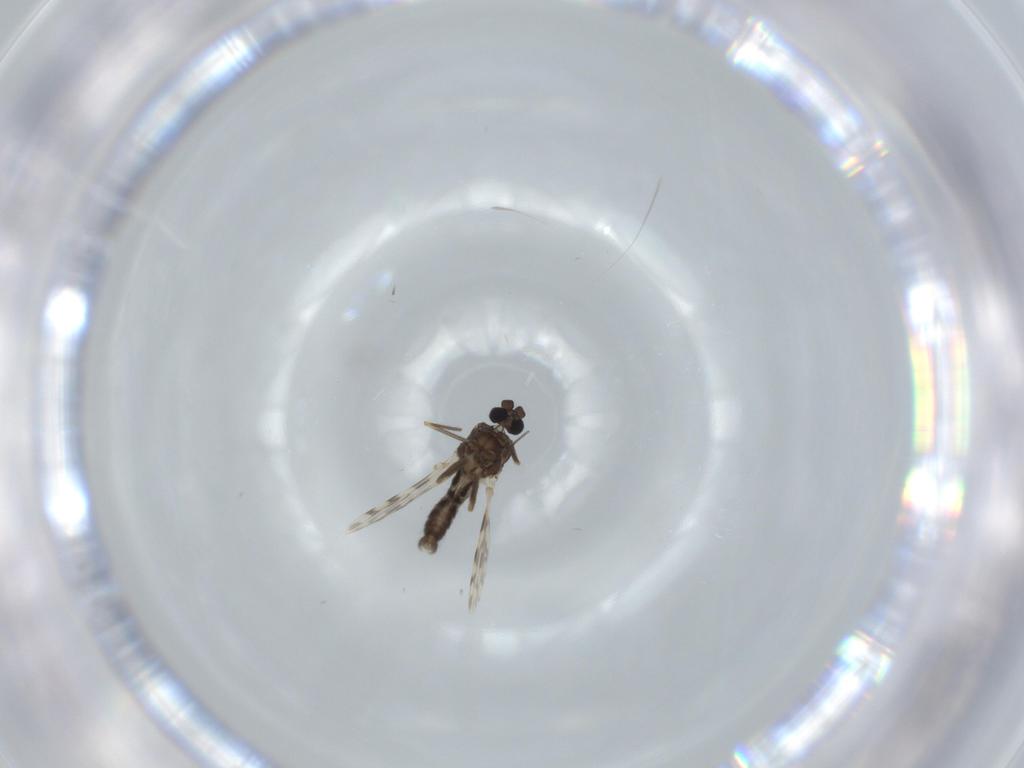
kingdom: Animalia
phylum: Arthropoda
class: Insecta
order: Diptera
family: Ceratopogonidae
